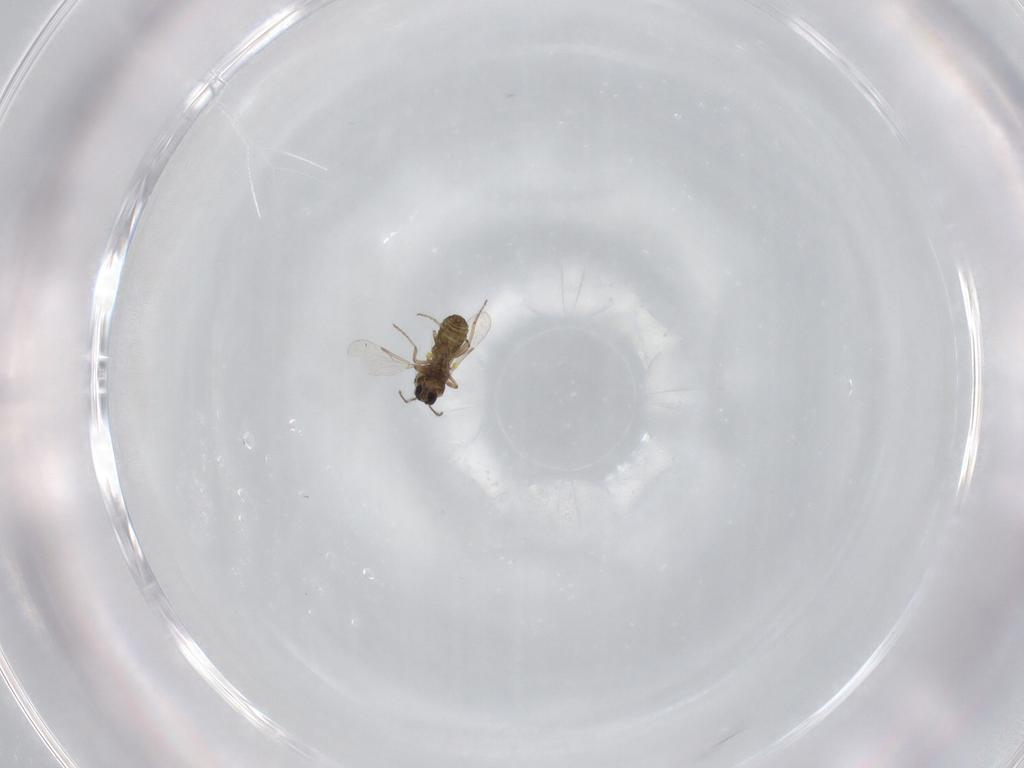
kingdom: Animalia
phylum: Arthropoda
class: Insecta
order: Diptera
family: Ceratopogonidae
